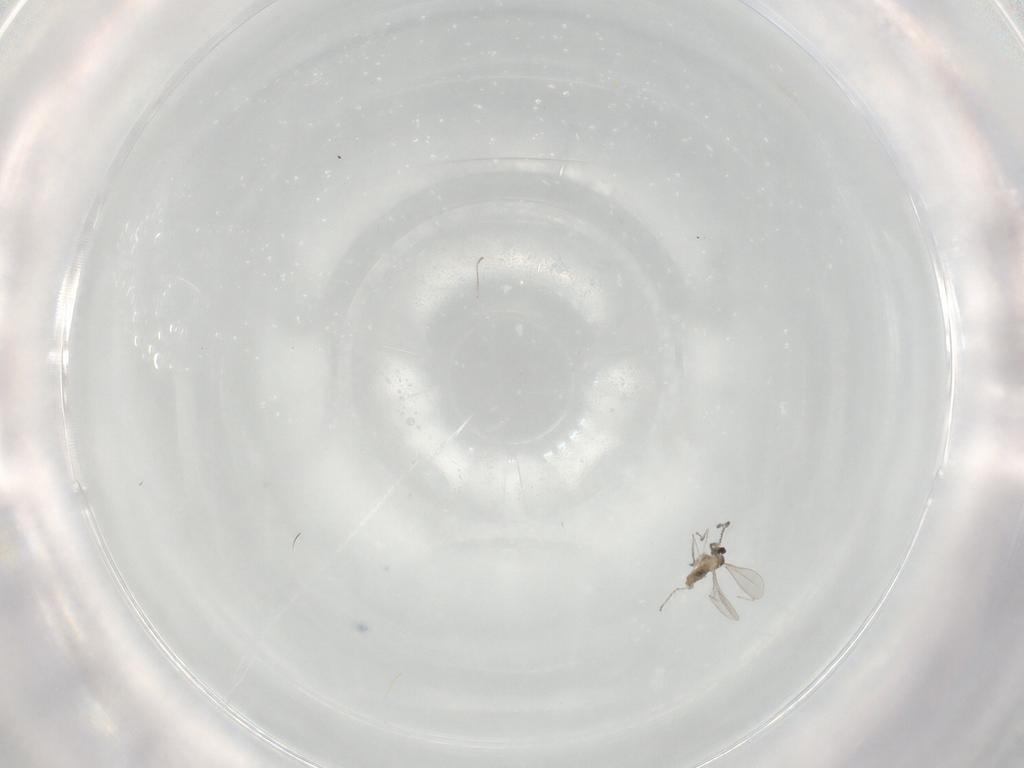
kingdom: Animalia
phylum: Arthropoda
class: Insecta
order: Diptera
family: Cecidomyiidae
